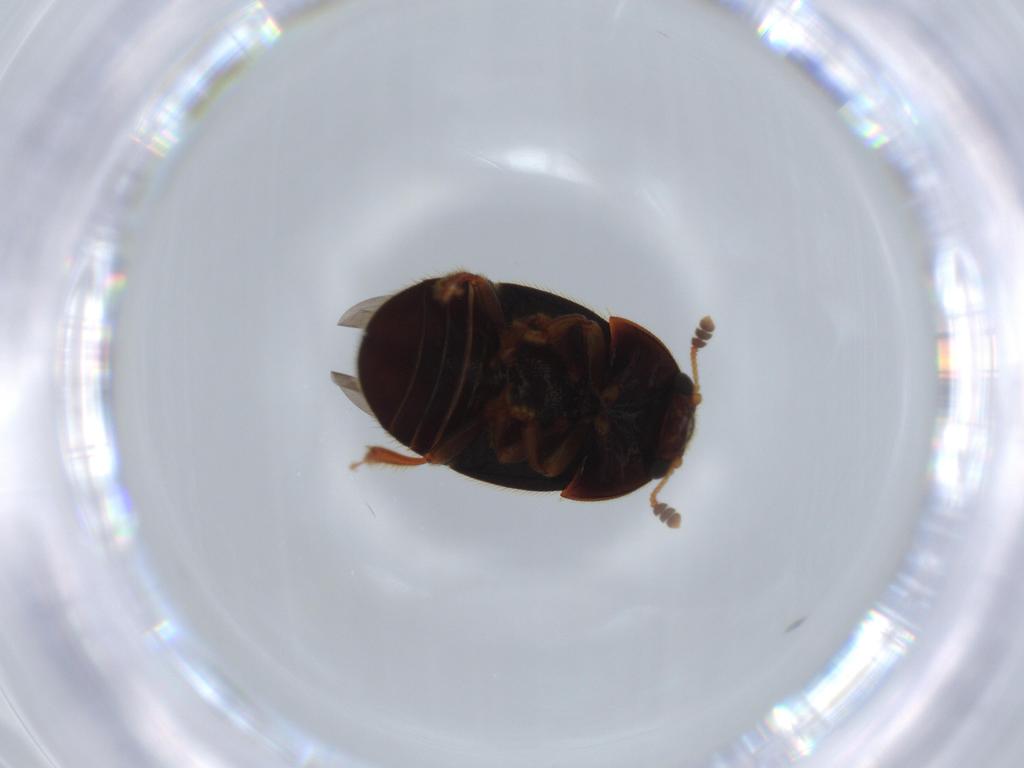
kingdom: Animalia
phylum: Arthropoda
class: Insecta
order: Coleoptera
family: Nitidulidae
